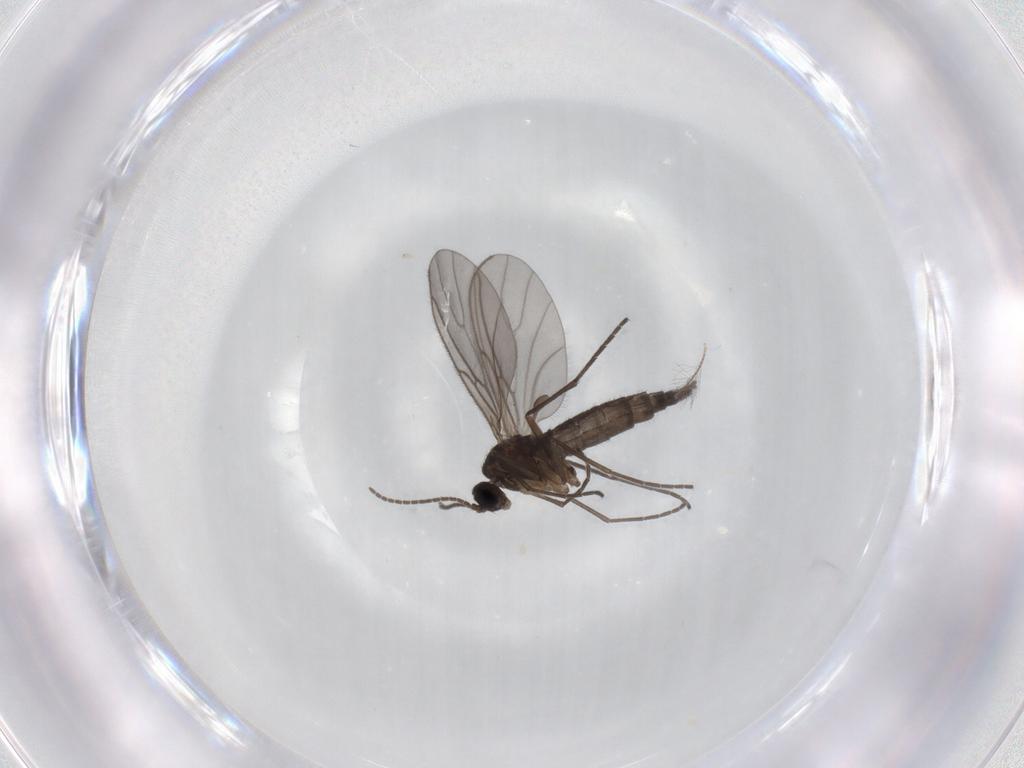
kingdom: Animalia
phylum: Arthropoda
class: Insecta
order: Diptera
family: Sciaridae
